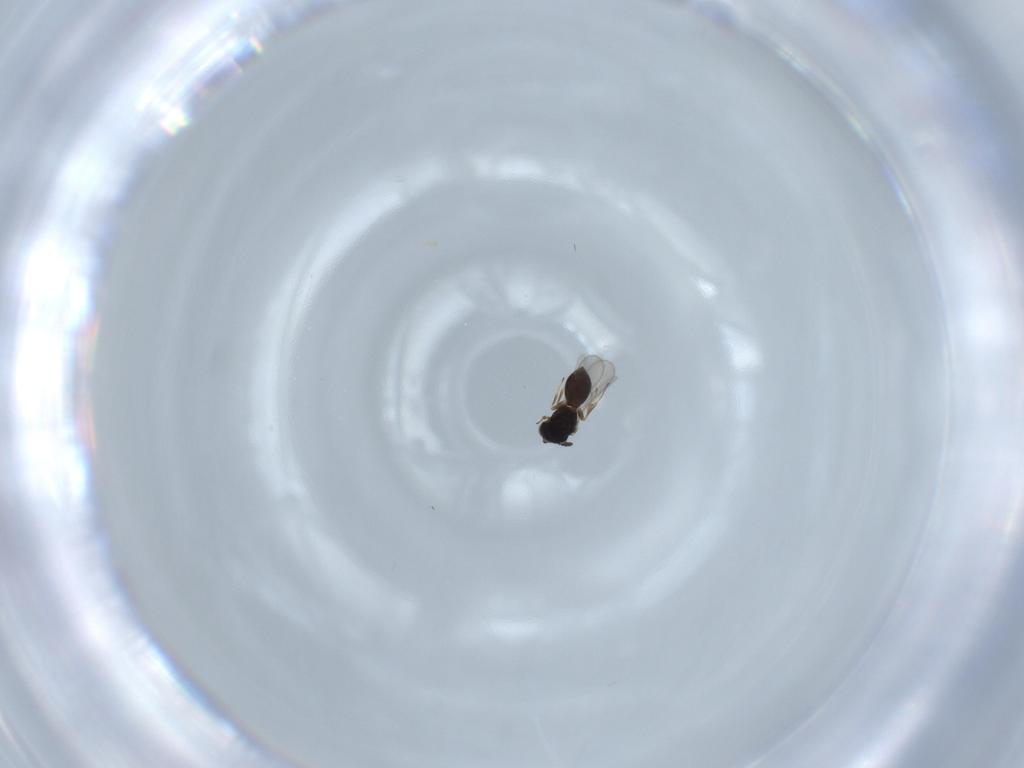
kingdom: Animalia
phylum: Arthropoda
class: Insecta
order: Hymenoptera
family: Scelionidae
